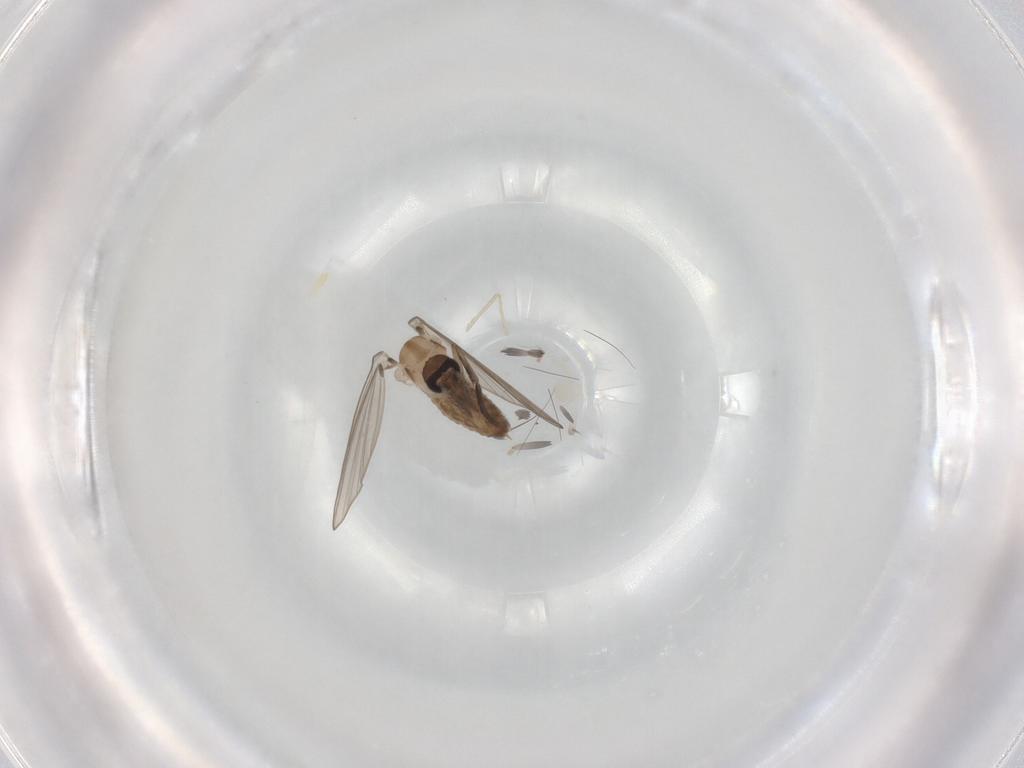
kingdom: Animalia
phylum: Arthropoda
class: Insecta
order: Diptera
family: Psychodidae
